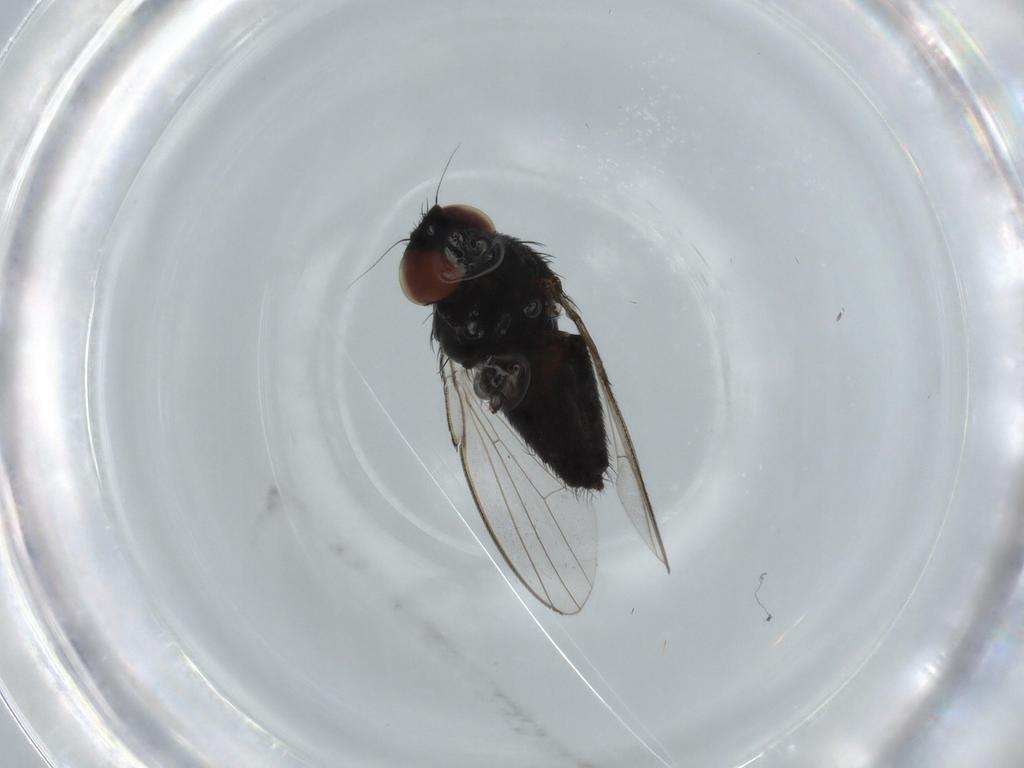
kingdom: Animalia
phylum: Arthropoda
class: Insecta
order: Diptera
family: Milichiidae
